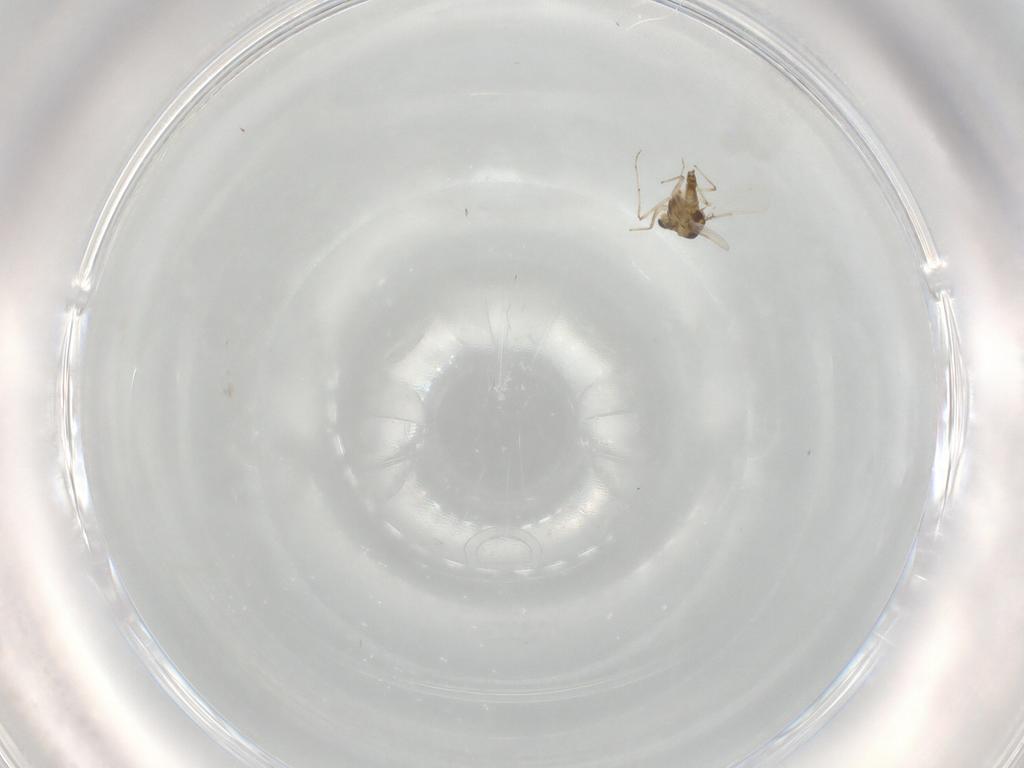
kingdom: Animalia
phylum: Arthropoda
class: Insecta
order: Diptera
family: Chironomidae
